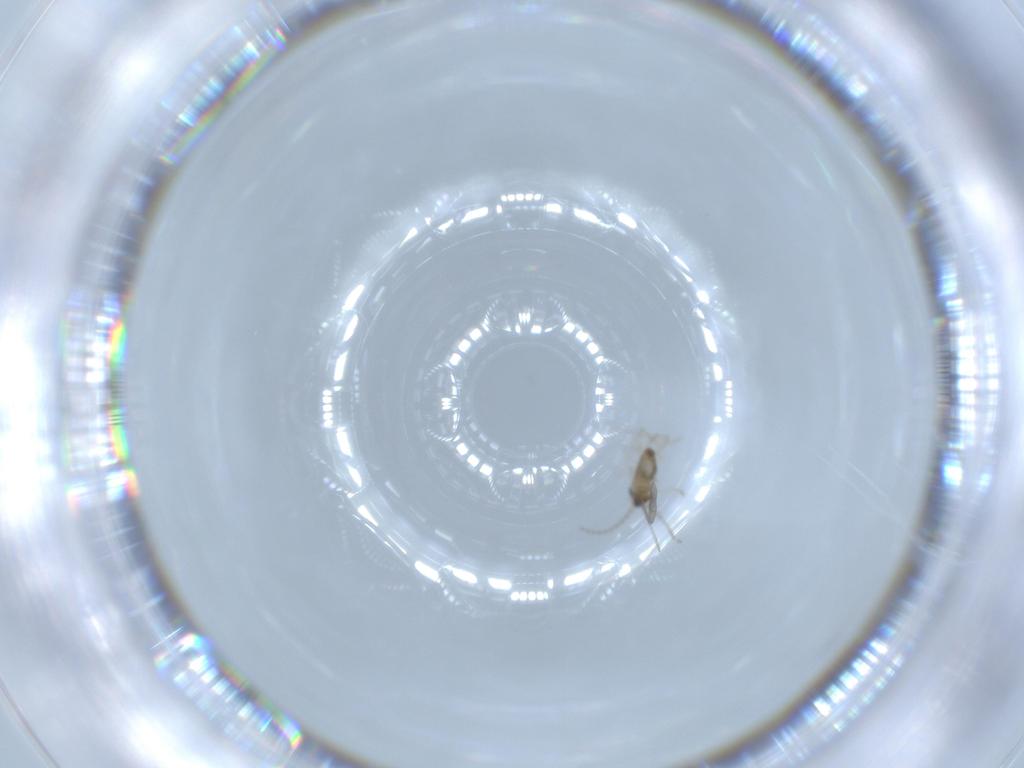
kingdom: Animalia
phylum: Arthropoda
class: Insecta
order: Diptera
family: Cecidomyiidae
